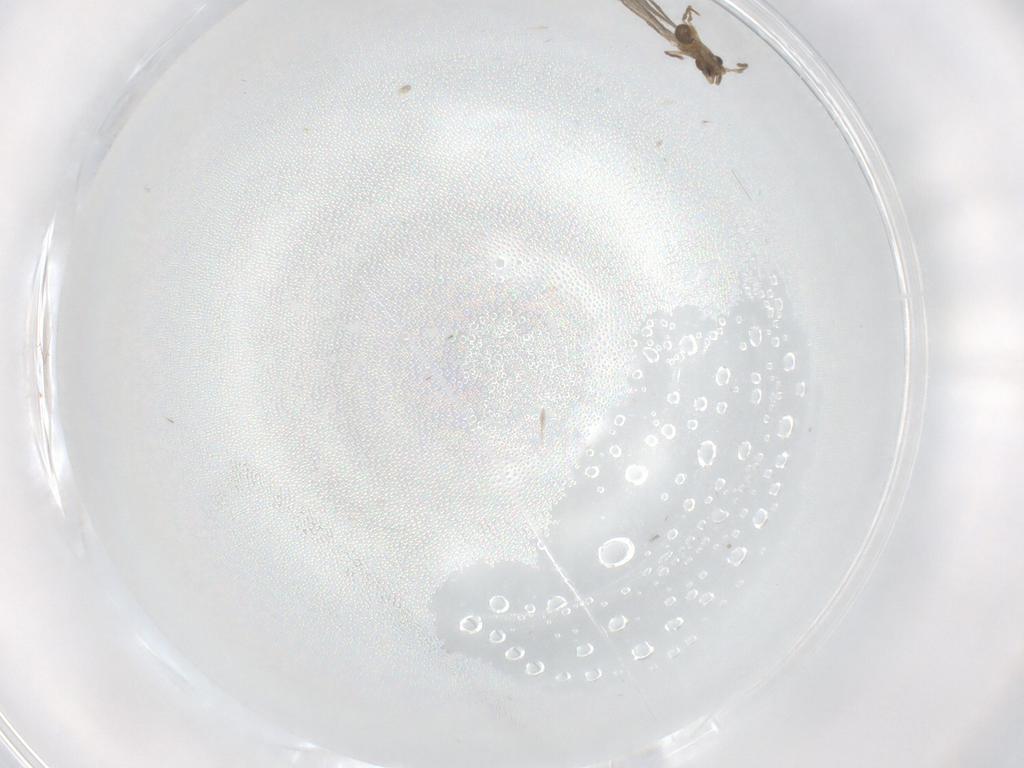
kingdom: Animalia
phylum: Arthropoda
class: Insecta
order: Hymenoptera
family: Formicidae
